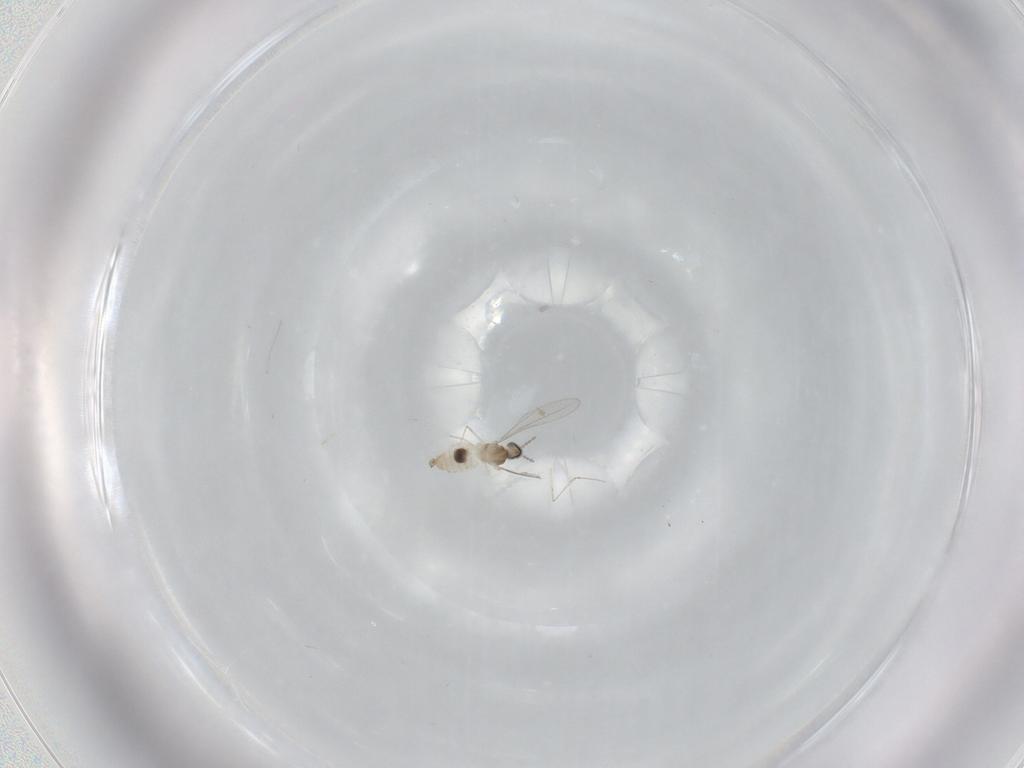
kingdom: Animalia
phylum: Arthropoda
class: Insecta
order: Diptera
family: Cecidomyiidae
